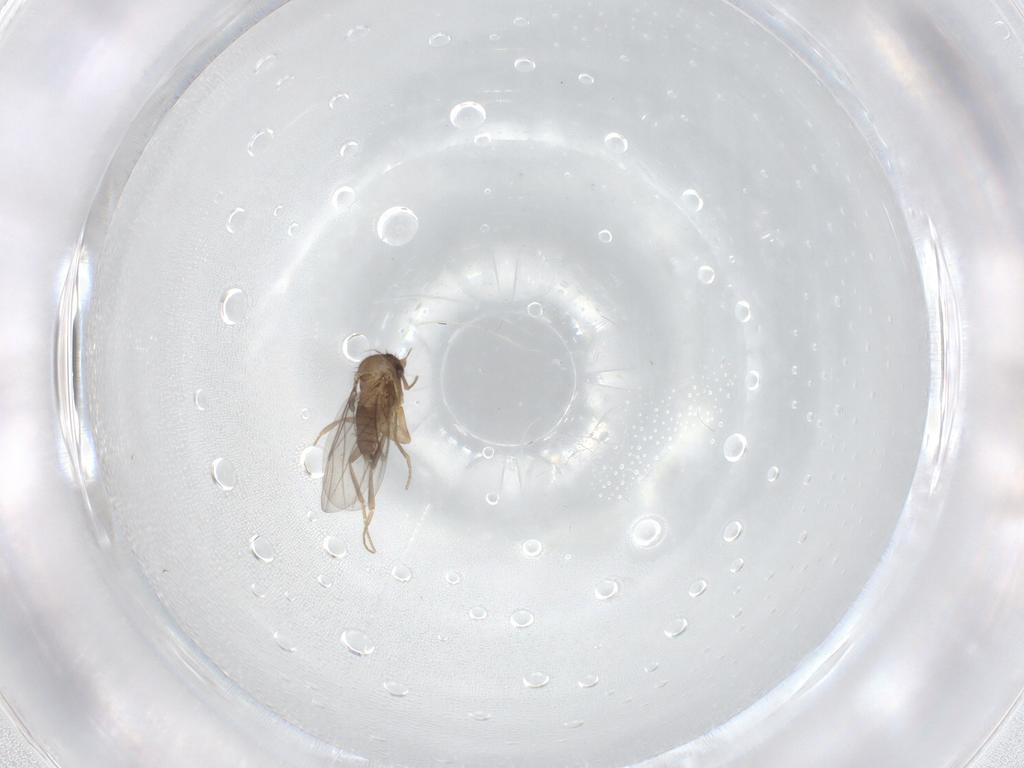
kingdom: Animalia
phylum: Arthropoda
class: Insecta
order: Diptera
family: Phoridae
